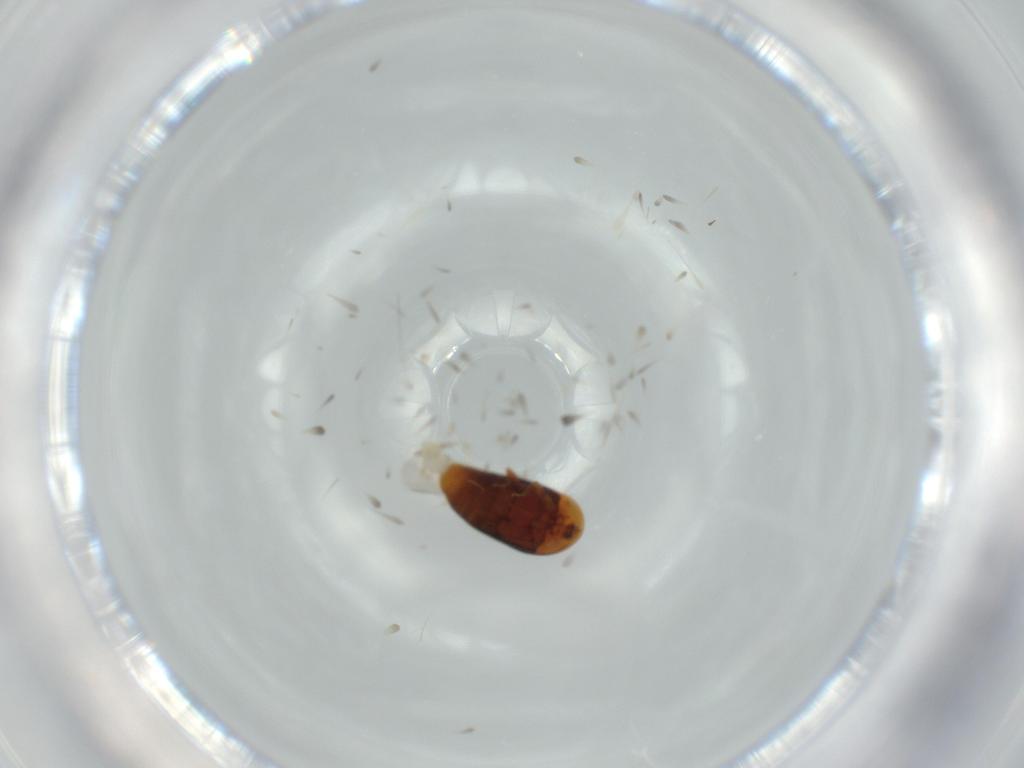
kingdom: Animalia
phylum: Arthropoda
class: Insecta
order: Coleoptera
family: Corylophidae
